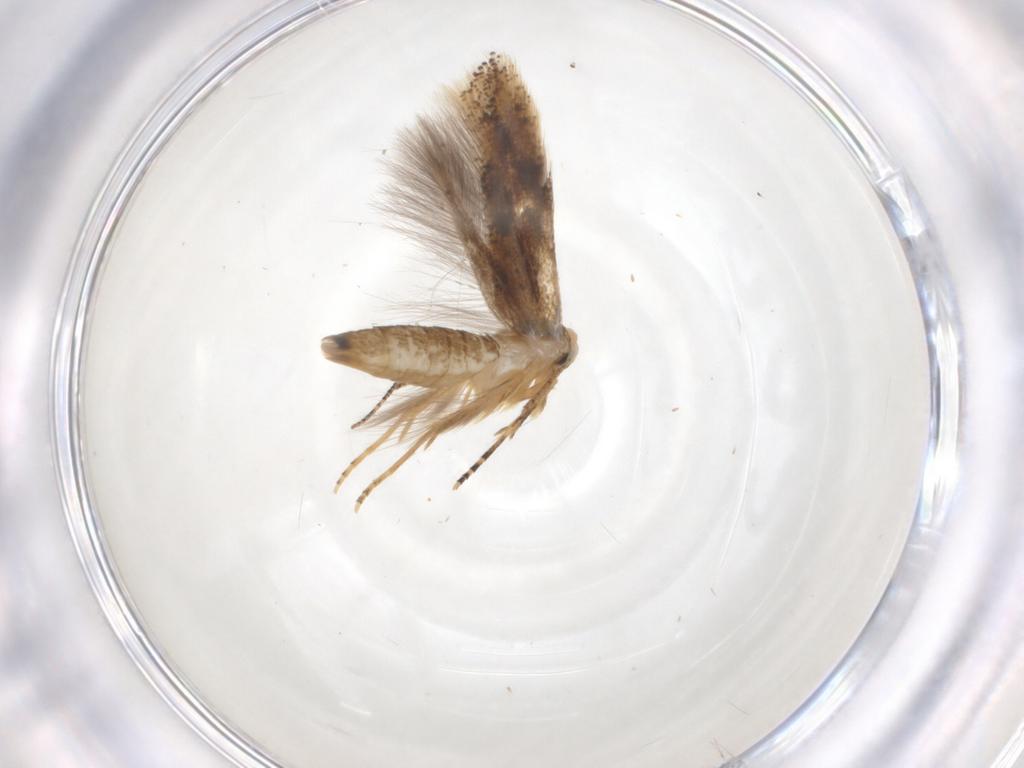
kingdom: Animalia
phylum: Arthropoda
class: Insecta
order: Lepidoptera
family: Bucculatricidae
